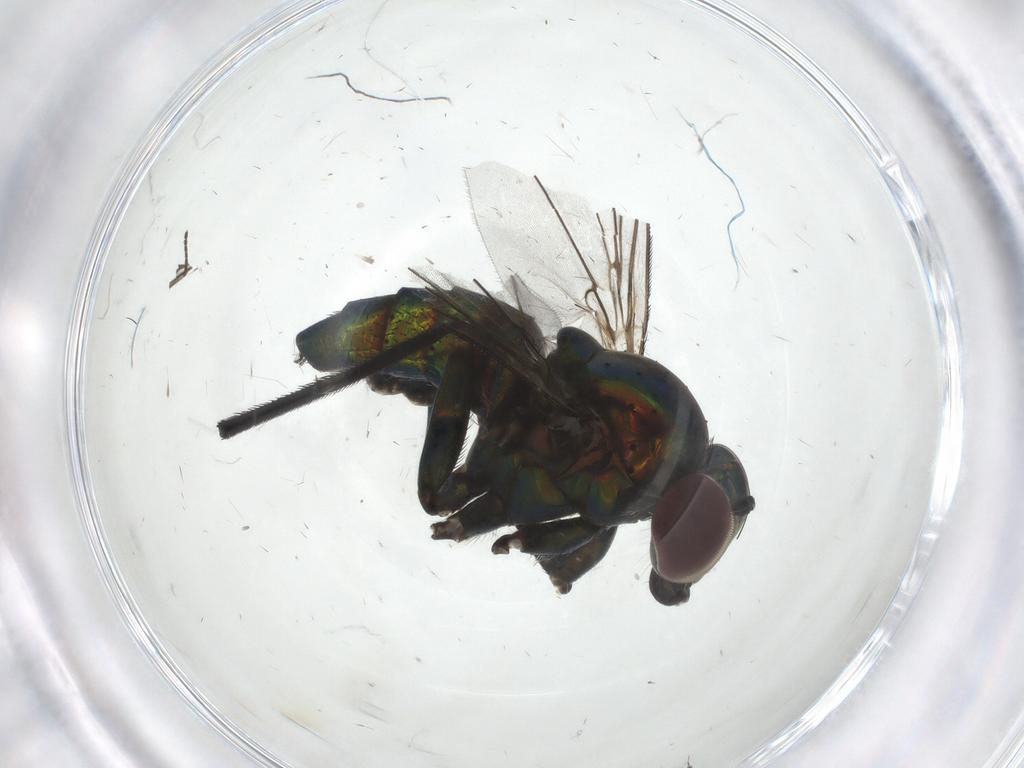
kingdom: Animalia
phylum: Arthropoda
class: Insecta
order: Diptera
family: Dolichopodidae
